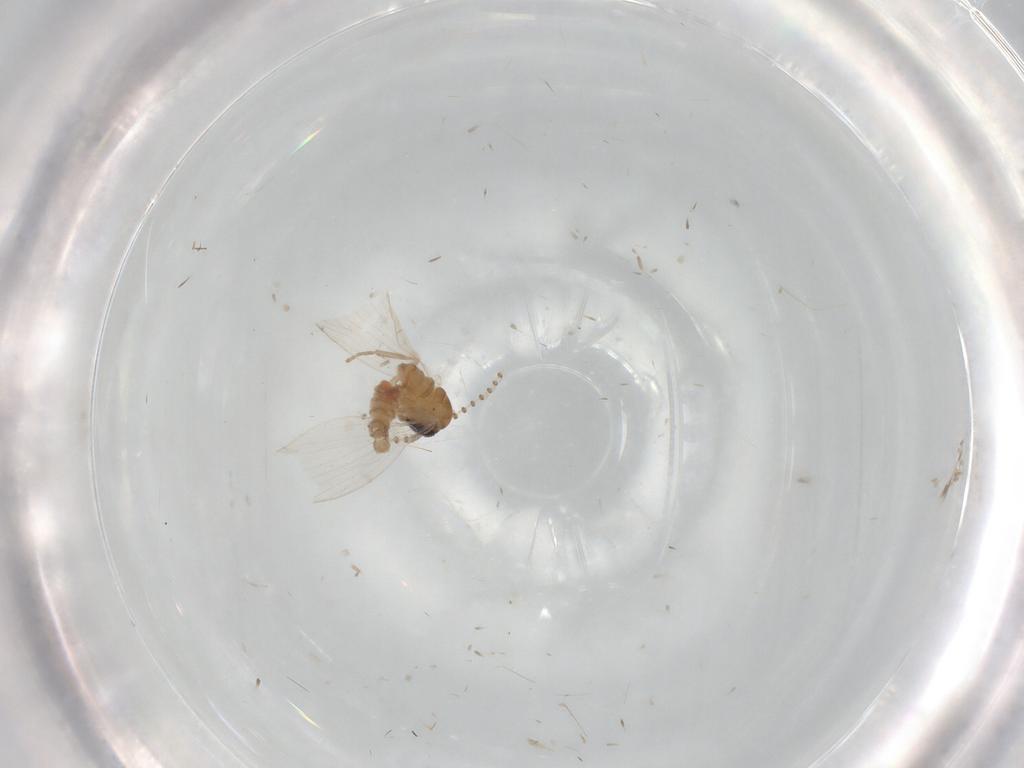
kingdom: Animalia
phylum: Arthropoda
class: Insecta
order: Diptera
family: Psychodidae
